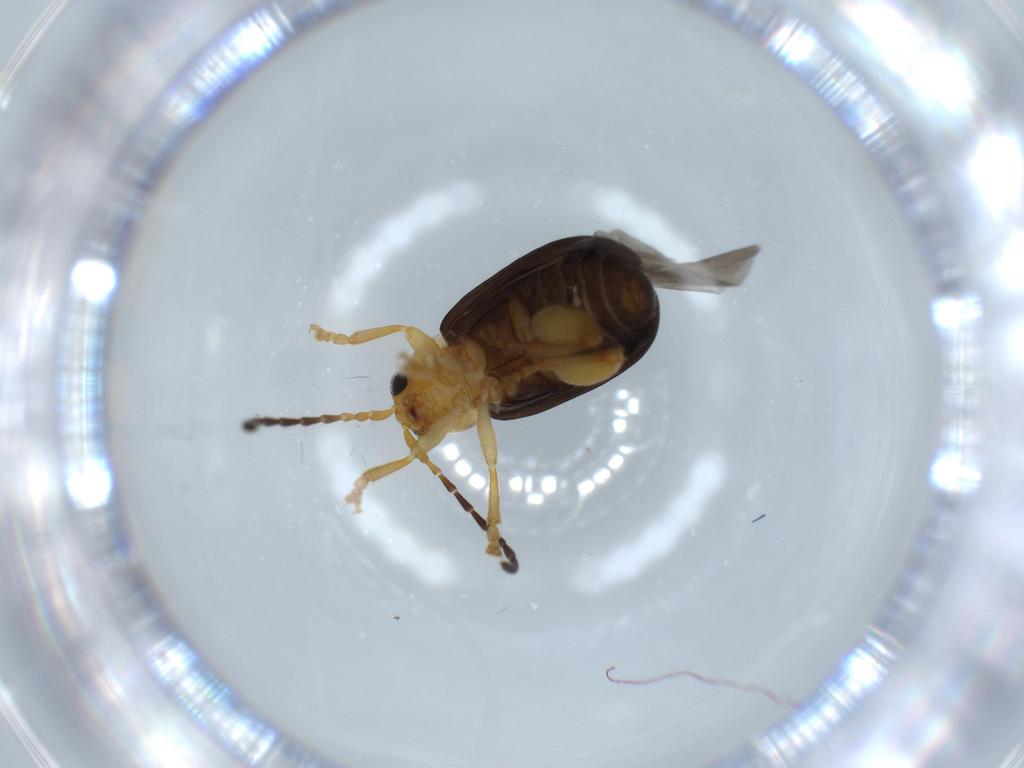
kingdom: Animalia
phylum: Arthropoda
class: Insecta
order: Coleoptera
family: Chrysomelidae
